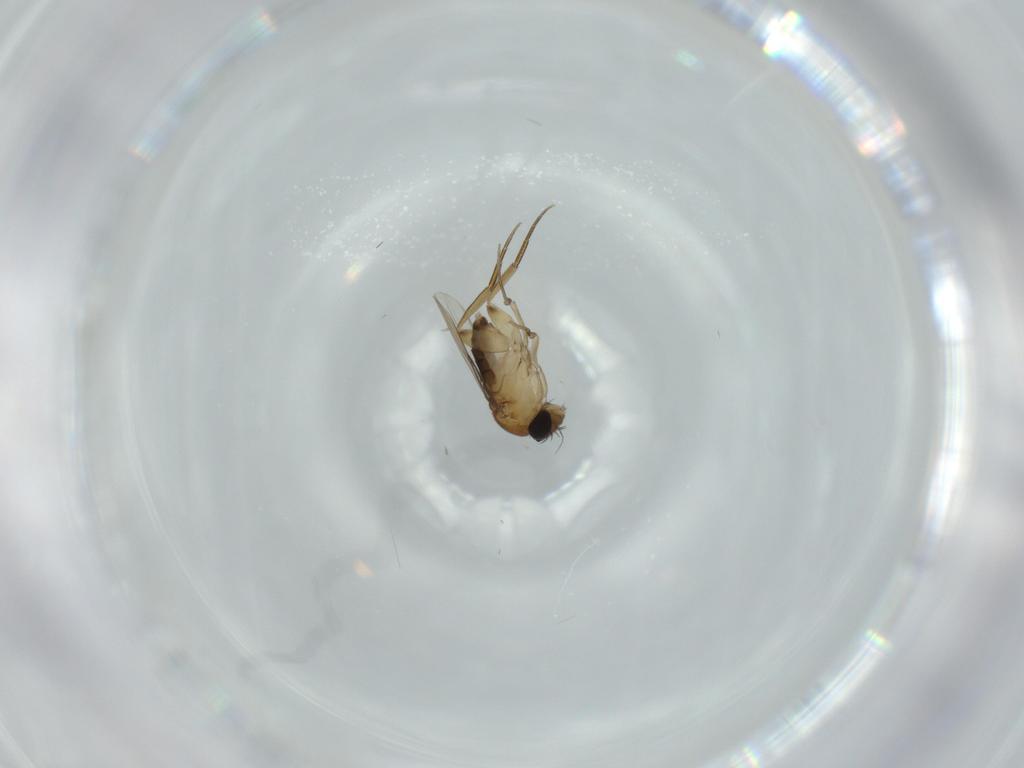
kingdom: Animalia
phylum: Arthropoda
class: Insecta
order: Diptera
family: Phoridae
